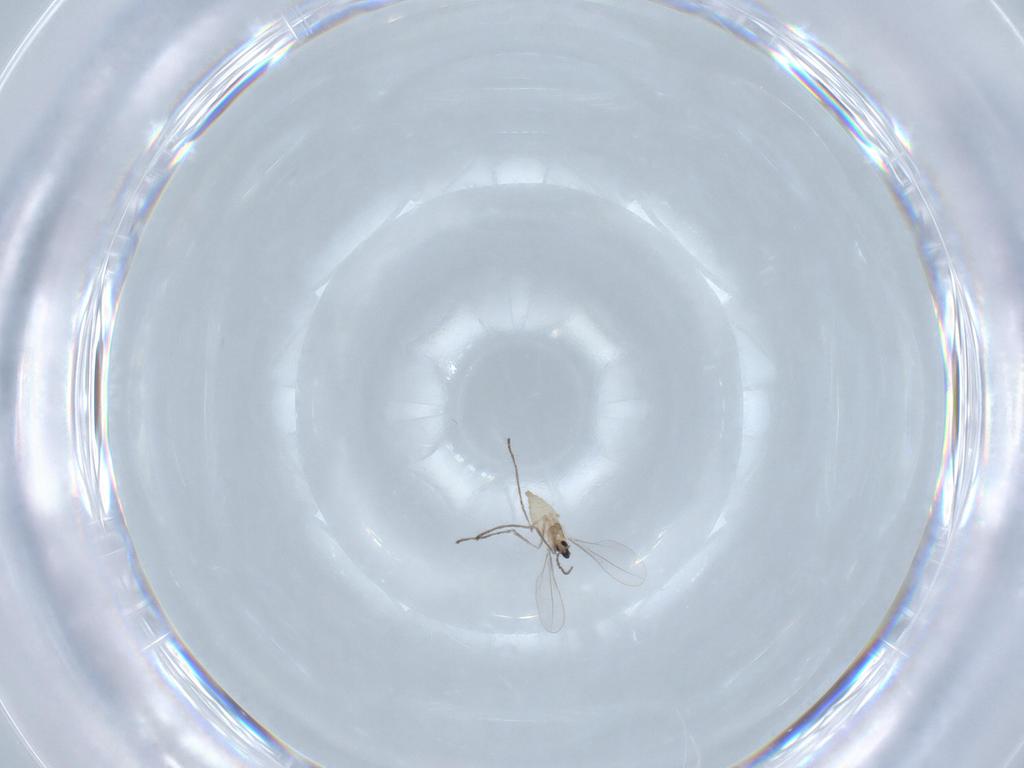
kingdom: Animalia
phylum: Arthropoda
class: Insecta
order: Diptera
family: Cecidomyiidae
